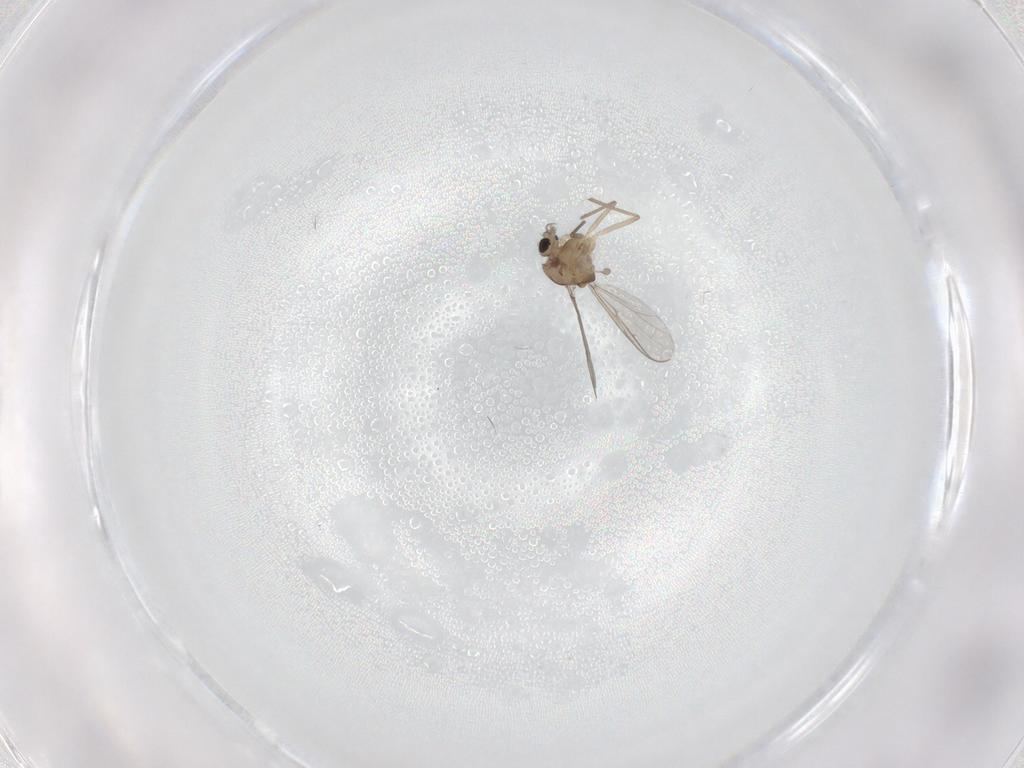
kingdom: Animalia
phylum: Arthropoda
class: Insecta
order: Diptera
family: Chironomidae
